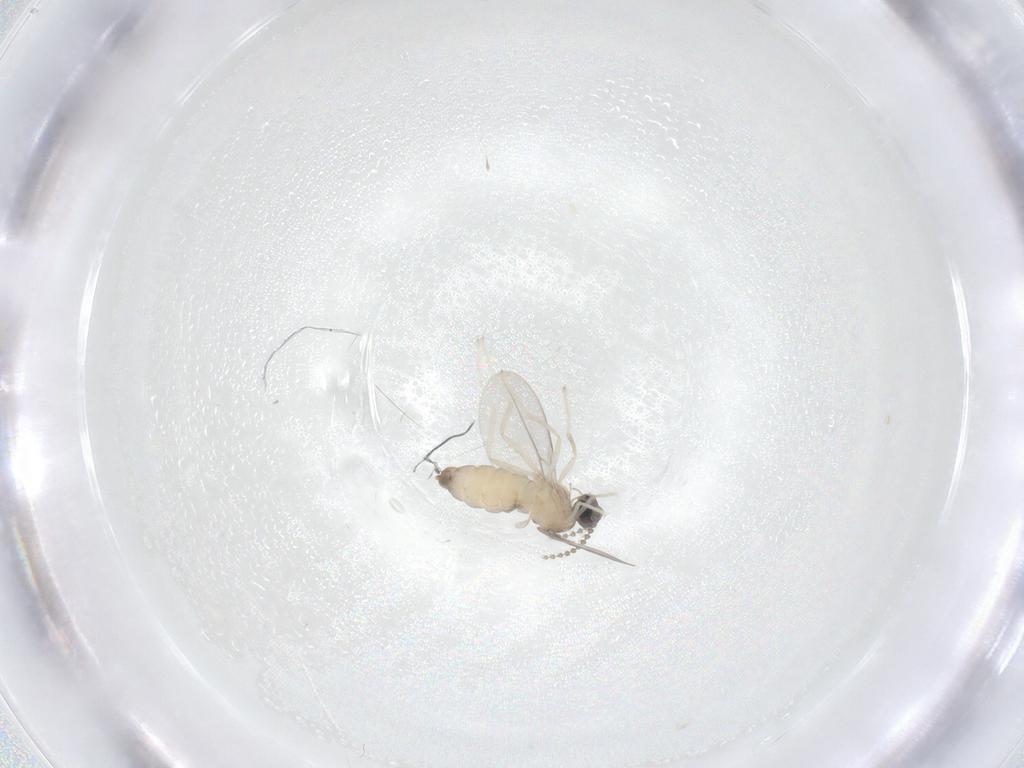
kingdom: Animalia
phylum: Arthropoda
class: Insecta
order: Diptera
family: Cecidomyiidae
